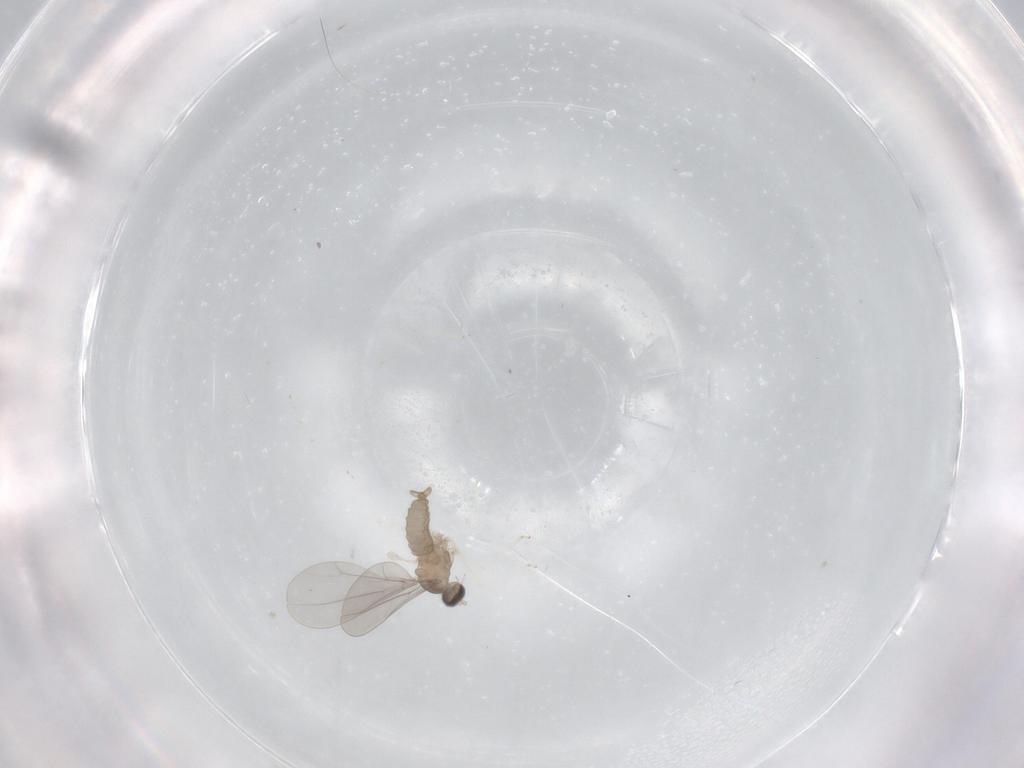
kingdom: Animalia
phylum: Arthropoda
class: Insecta
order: Diptera
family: Cecidomyiidae
